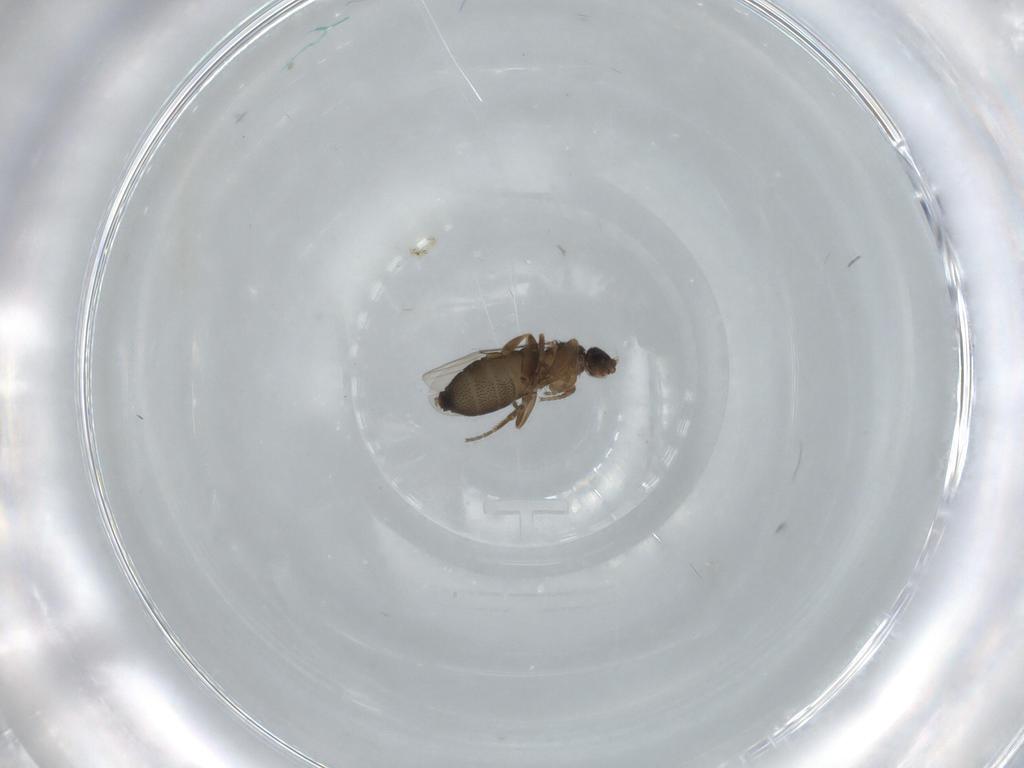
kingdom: Animalia
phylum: Arthropoda
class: Insecta
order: Diptera
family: Phoridae
